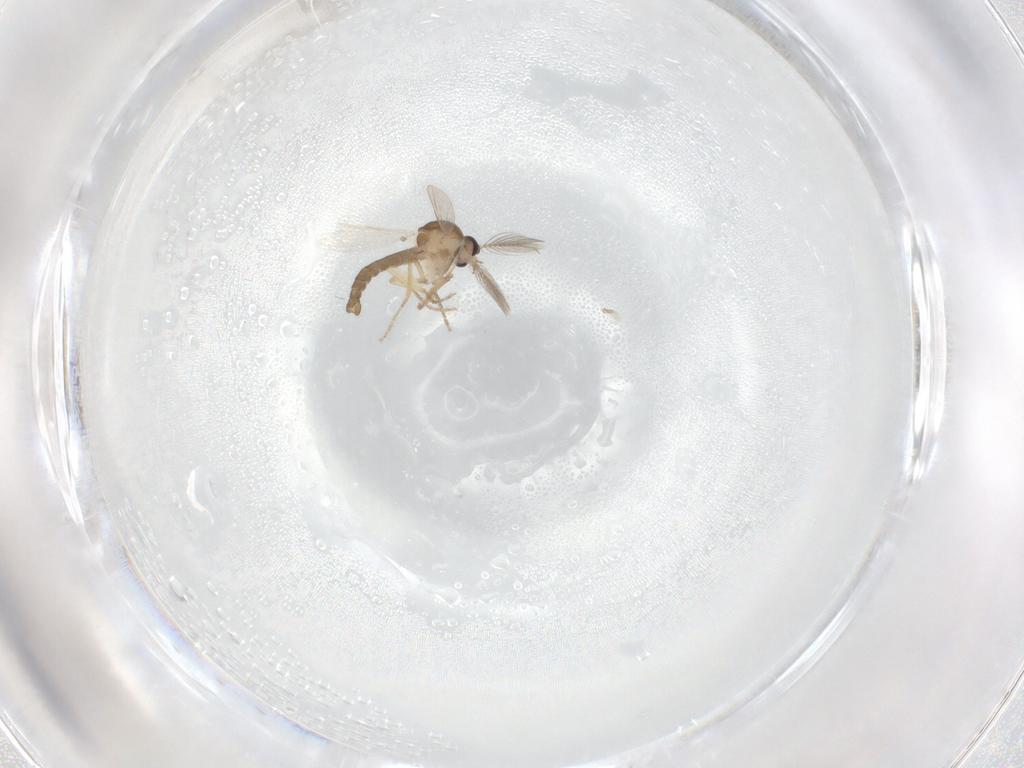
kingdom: Animalia
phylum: Arthropoda
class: Insecta
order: Diptera
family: Ceratopogonidae
